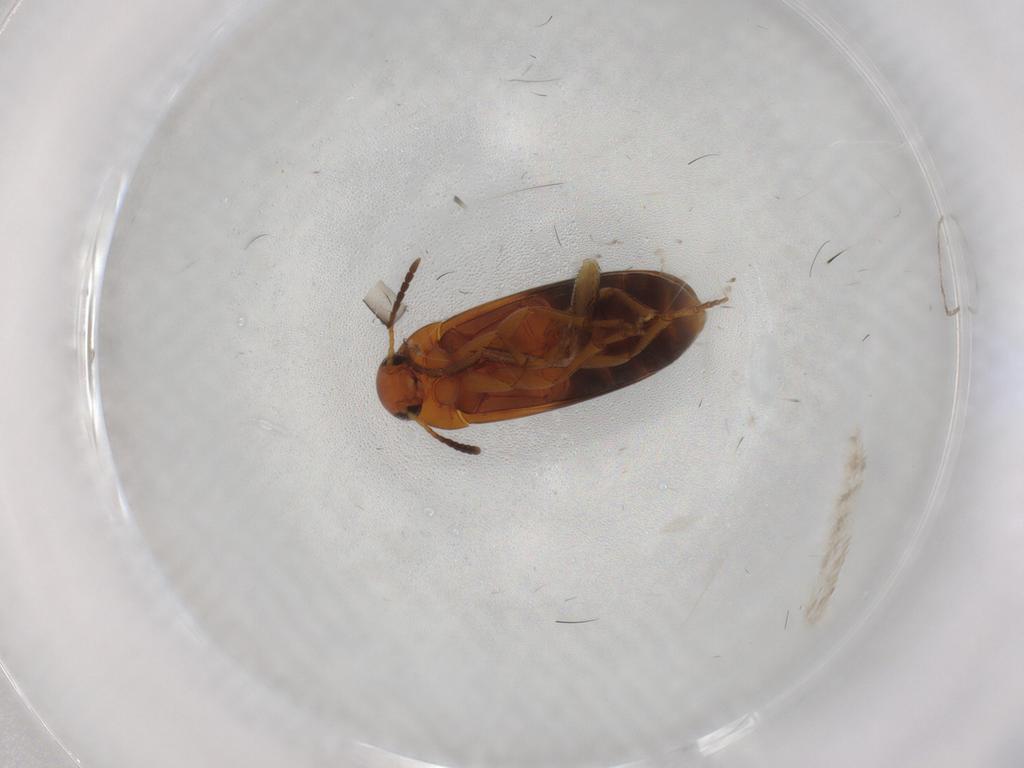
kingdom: Animalia
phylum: Arthropoda
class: Insecta
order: Coleoptera
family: Scraptiidae
